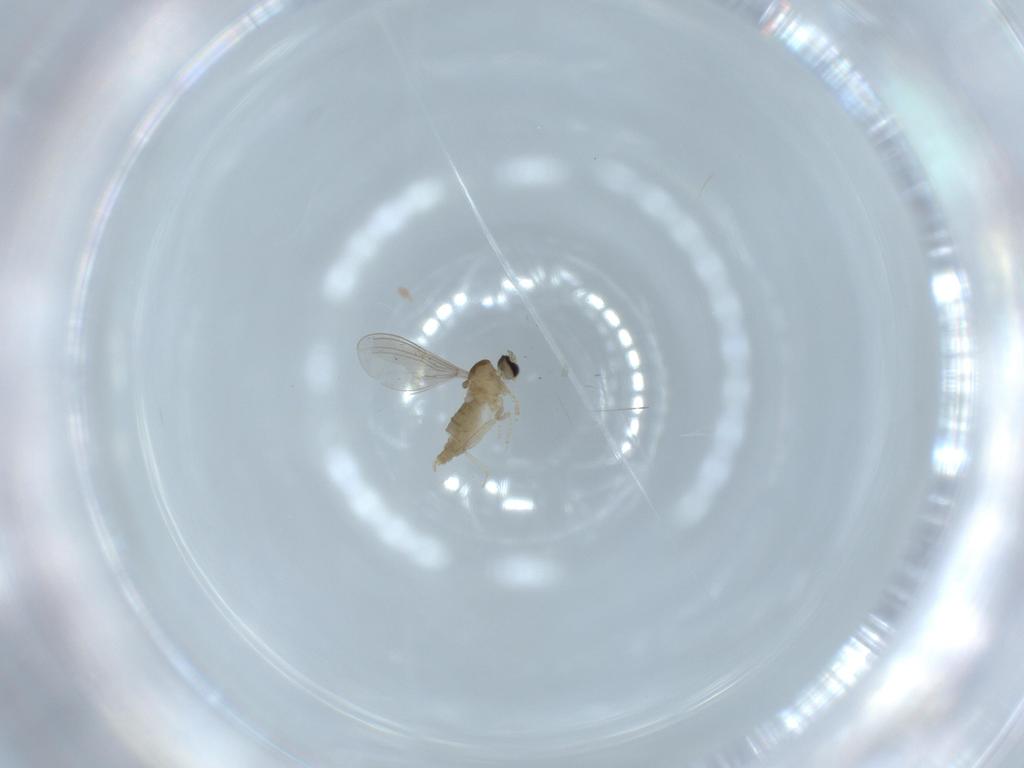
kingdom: Animalia
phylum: Arthropoda
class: Insecta
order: Diptera
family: Cecidomyiidae
